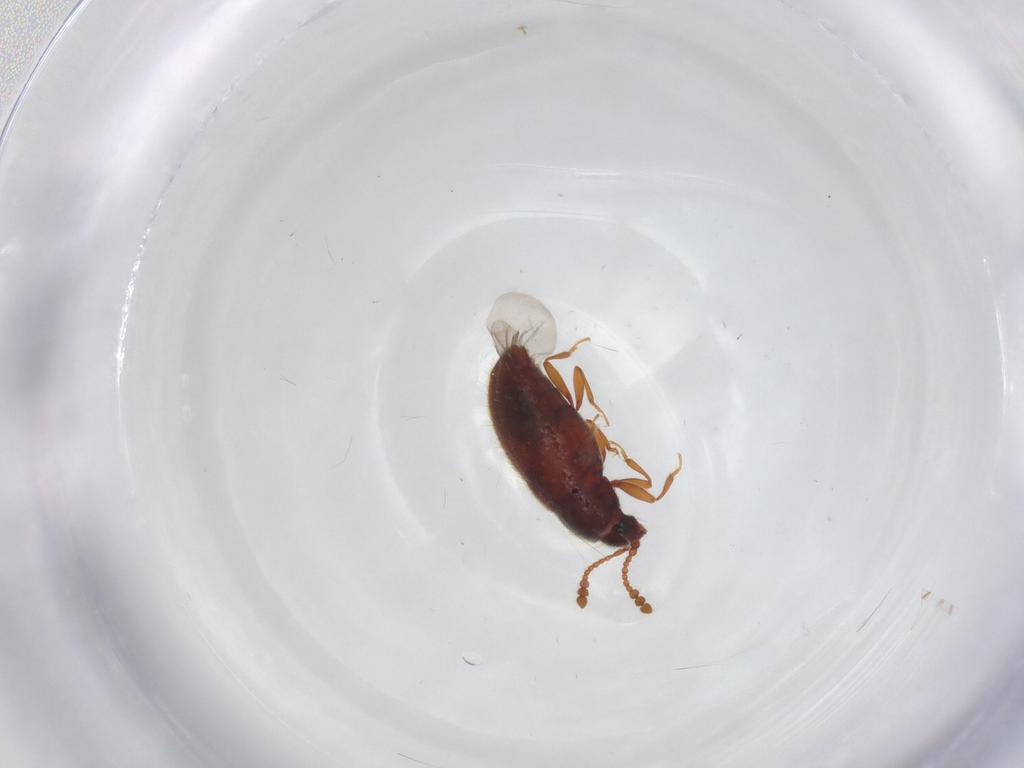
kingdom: Animalia
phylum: Arthropoda
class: Insecta
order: Coleoptera
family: Cryptophagidae
